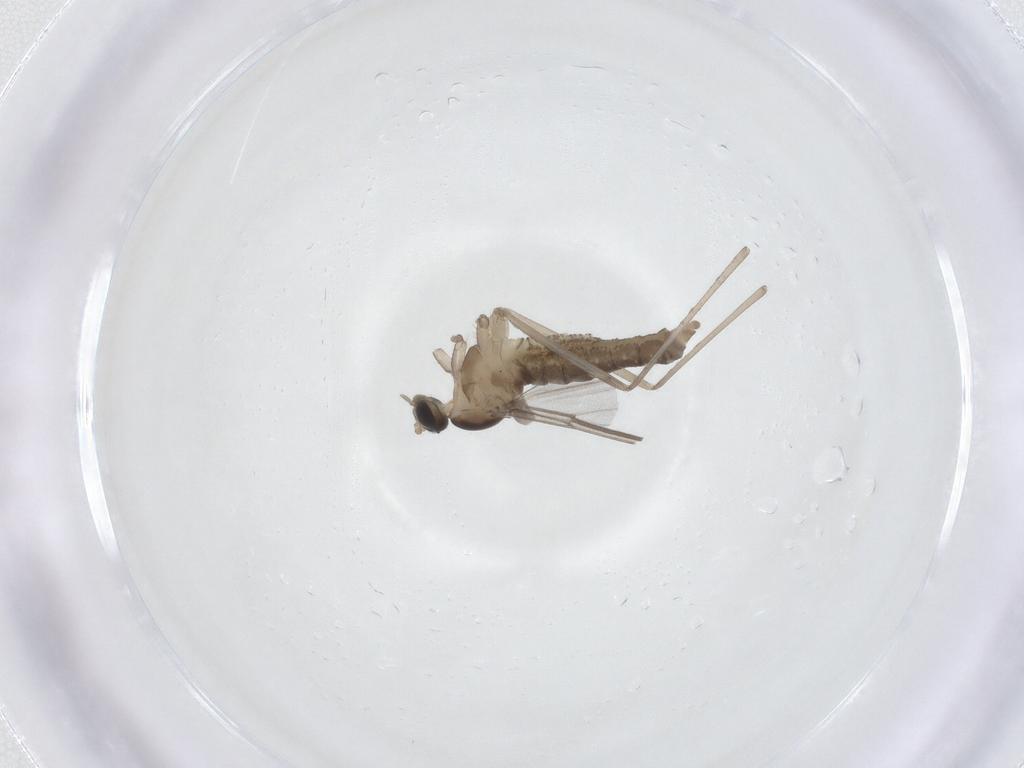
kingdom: Animalia
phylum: Arthropoda
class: Insecta
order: Diptera
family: Cecidomyiidae
